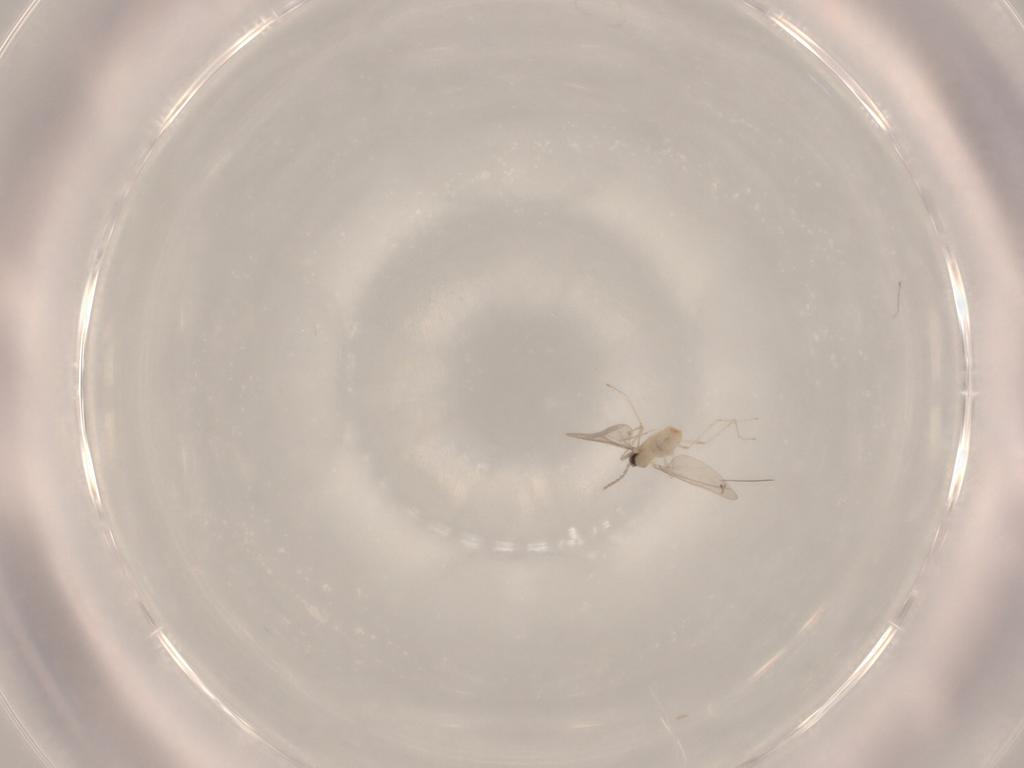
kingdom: Animalia
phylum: Arthropoda
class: Insecta
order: Diptera
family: Cecidomyiidae
